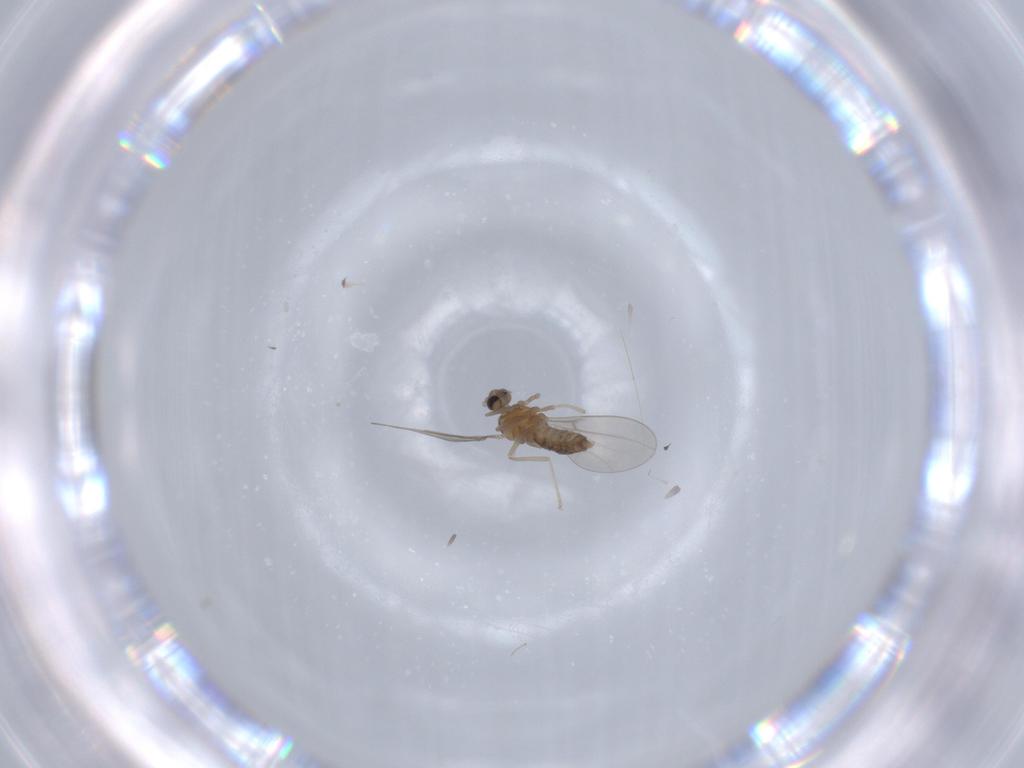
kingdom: Animalia
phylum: Arthropoda
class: Insecta
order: Diptera
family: Cecidomyiidae
